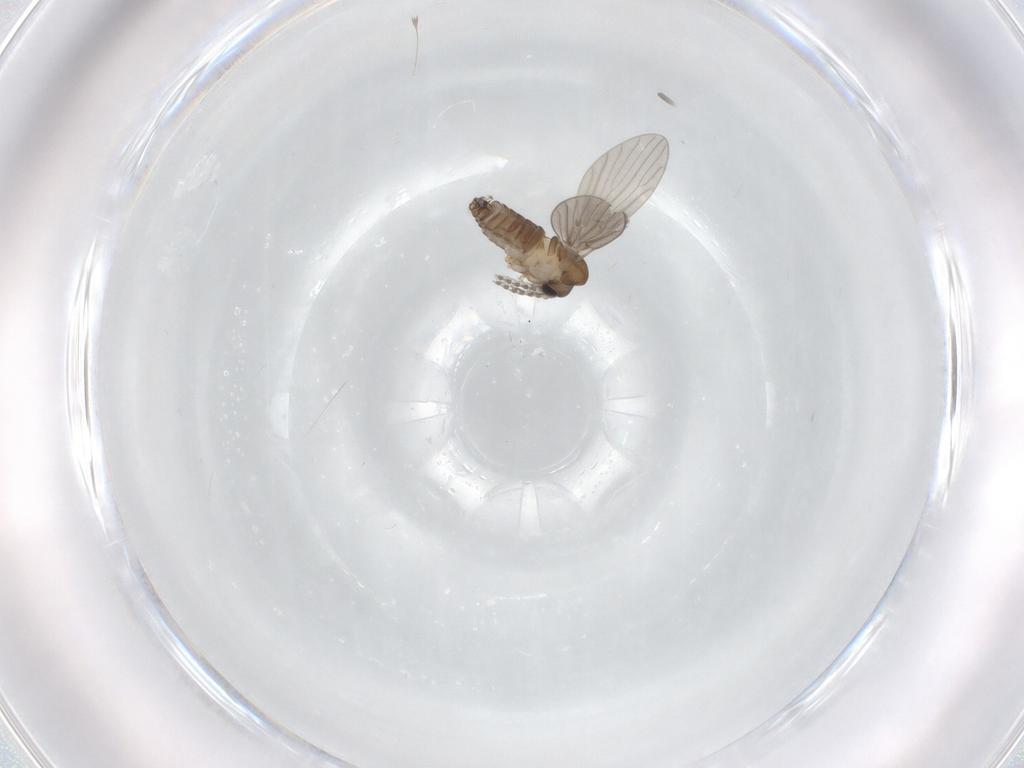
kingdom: Animalia
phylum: Arthropoda
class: Insecta
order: Diptera
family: Mycetophilidae
